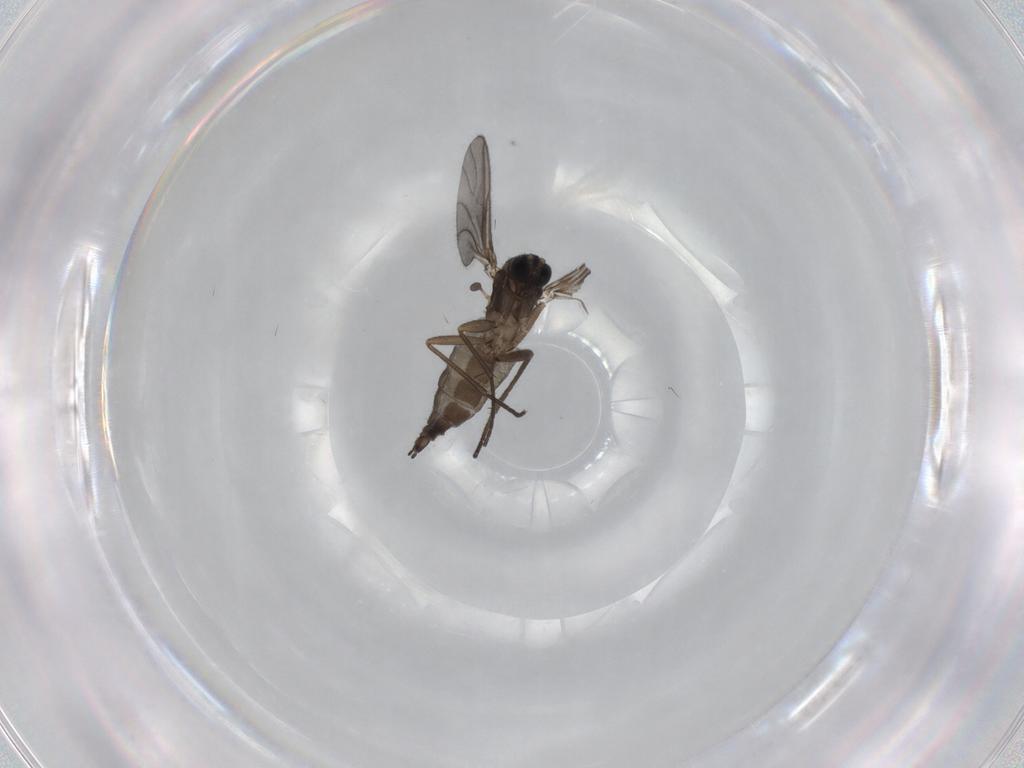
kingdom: Animalia
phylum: Arthropoda
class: Insecta
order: Diptera
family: Sciaridae
